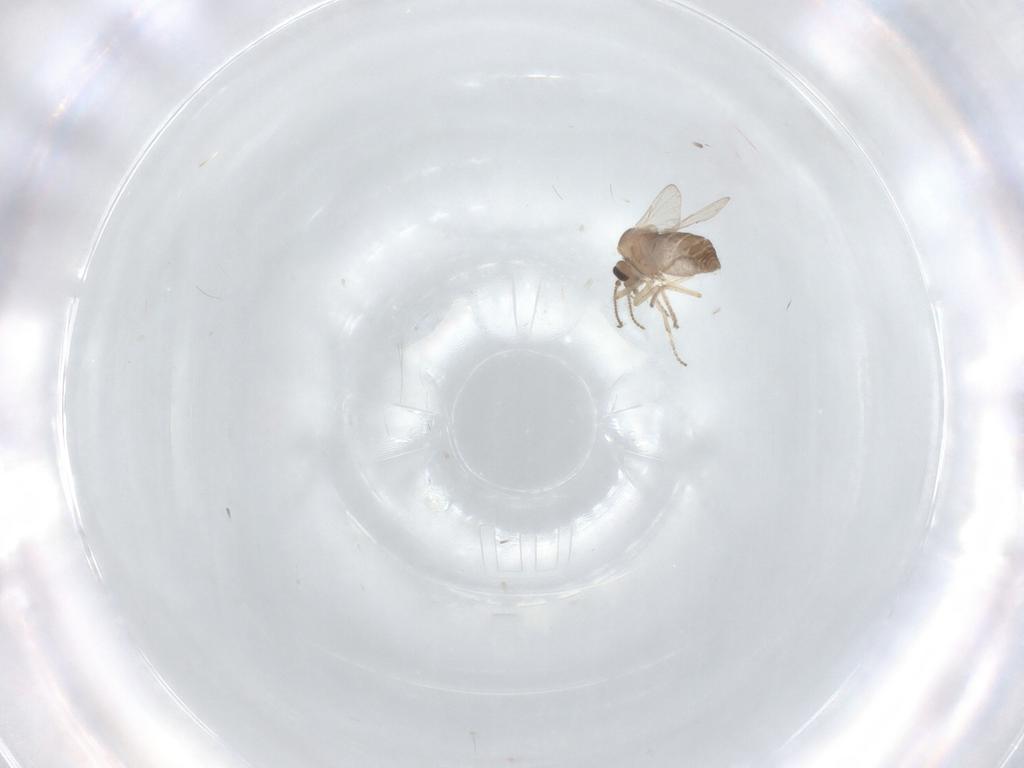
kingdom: Animalia
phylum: Arthropoda
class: Insecta
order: Diptera
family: Ceratopogonidae
